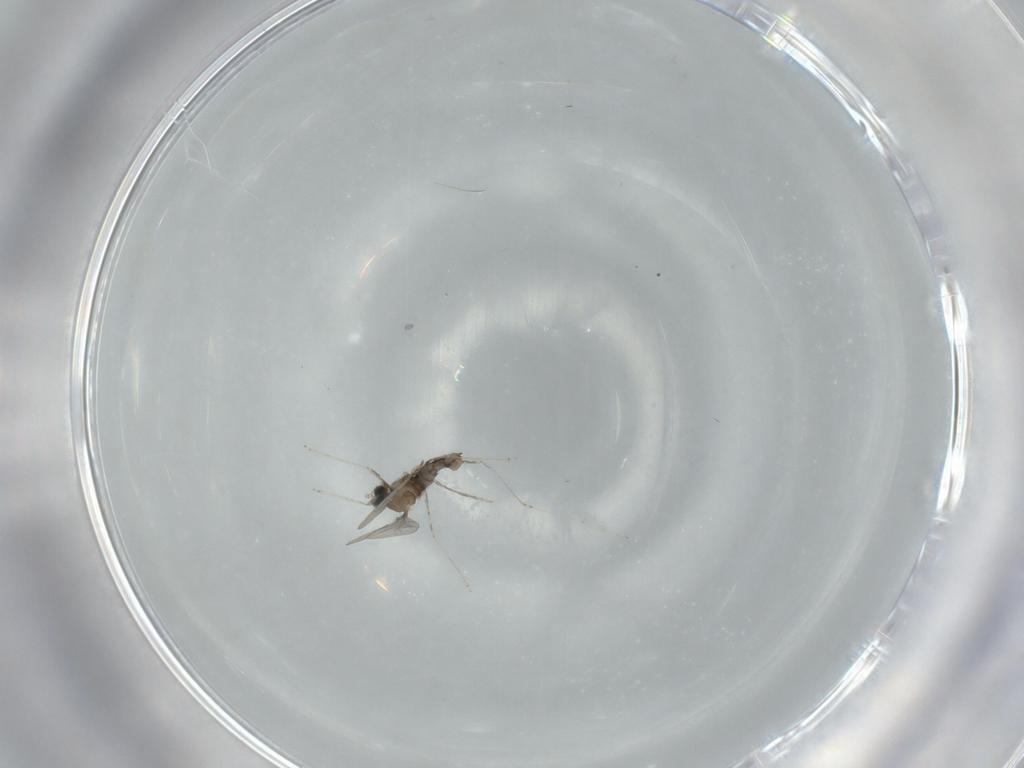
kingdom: Animalia
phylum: Arthropoda
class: Insecta
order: Diptera
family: Cecidomyiidae
